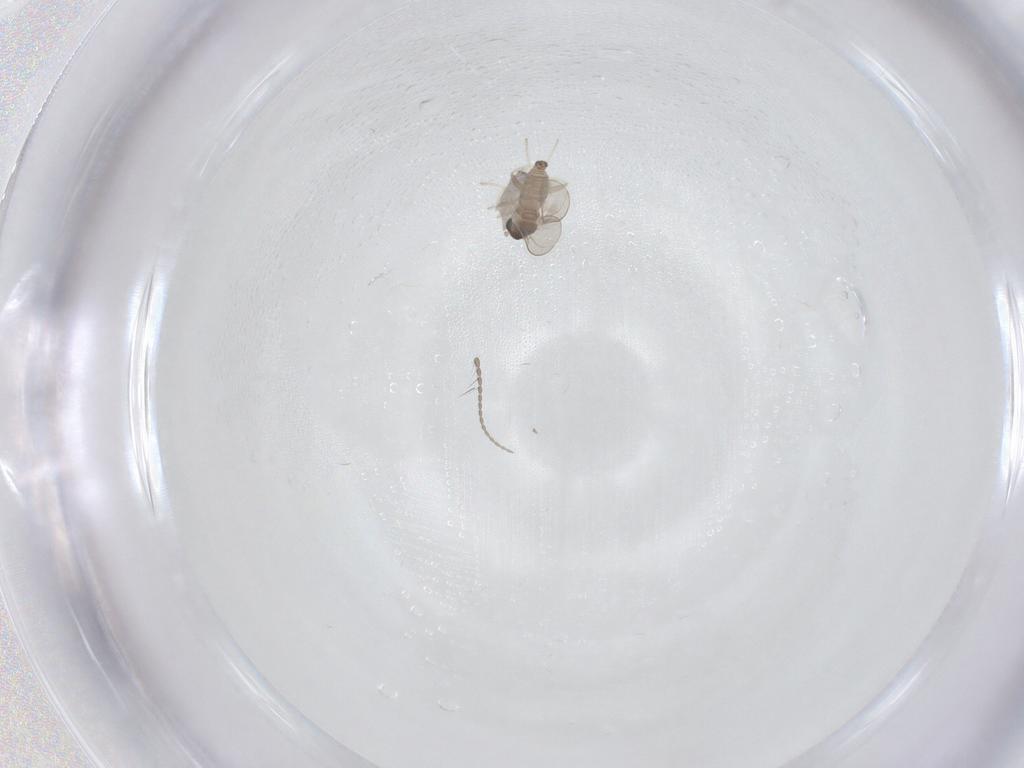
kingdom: Animalia
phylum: Arthropoda
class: Insecta
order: Diptera
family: Cecidomyiidae
